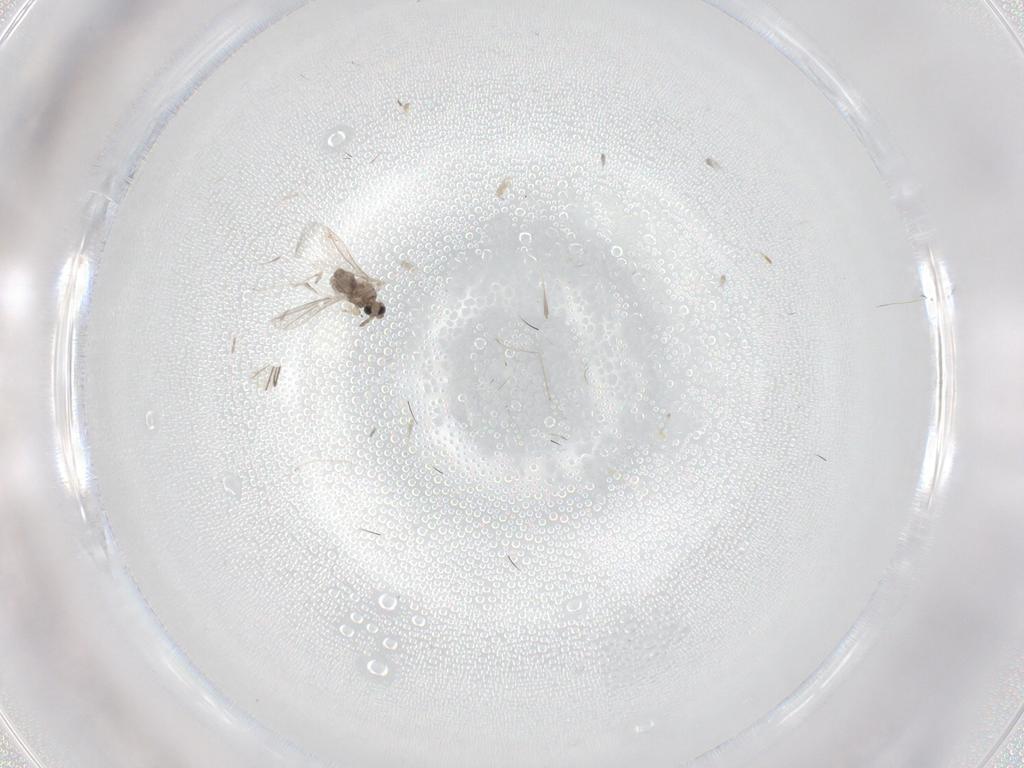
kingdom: Animalia
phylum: Arthropoda
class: Insecta
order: Diptera
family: Cecidomyiidae
